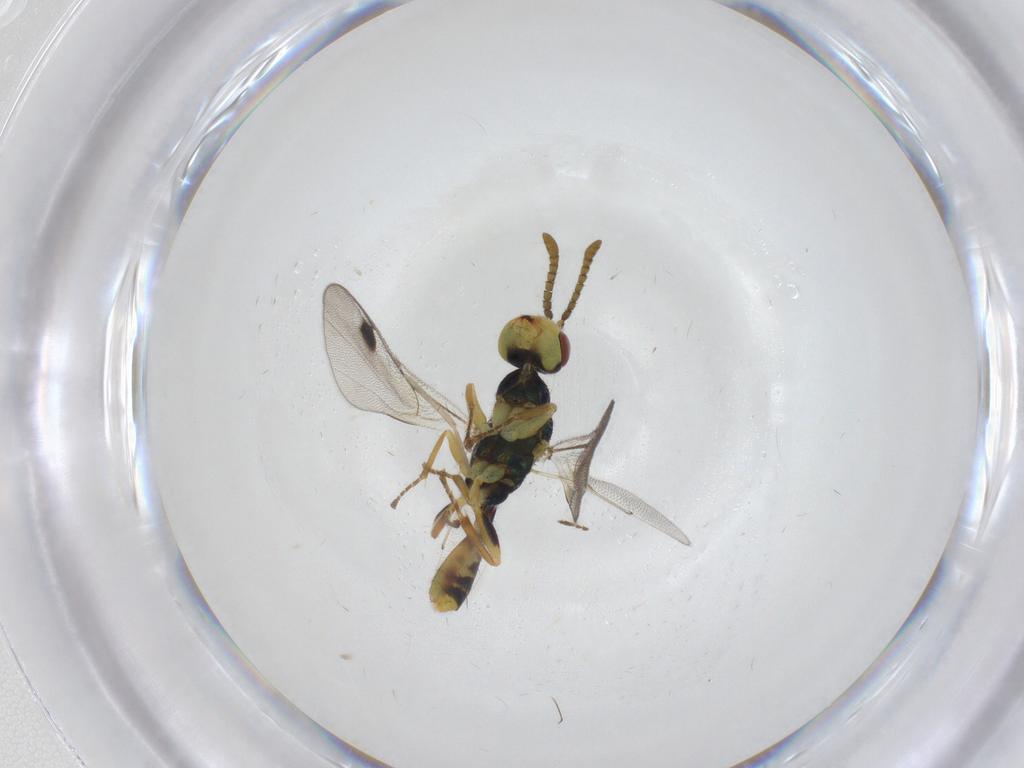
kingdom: Animalia
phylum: Arthropoda
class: Insecta
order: Hymenoptera
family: Megastigmidae
